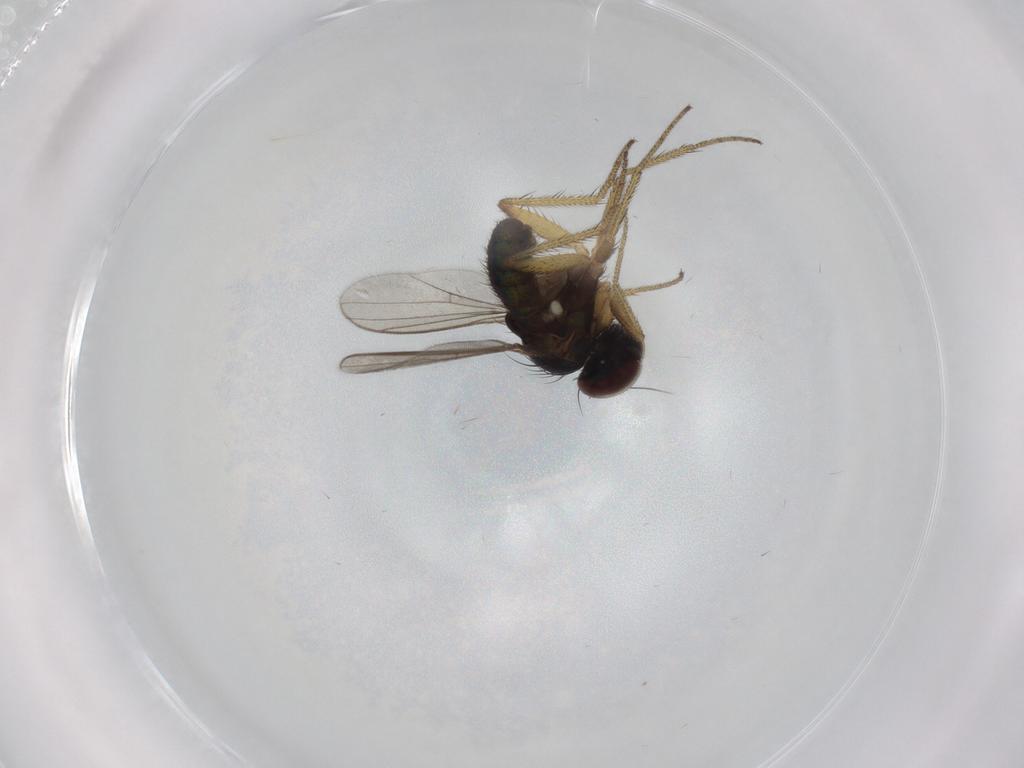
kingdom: Animalia
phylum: Arthropoda
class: Insecta
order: Diptera
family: Dolichopodidae
